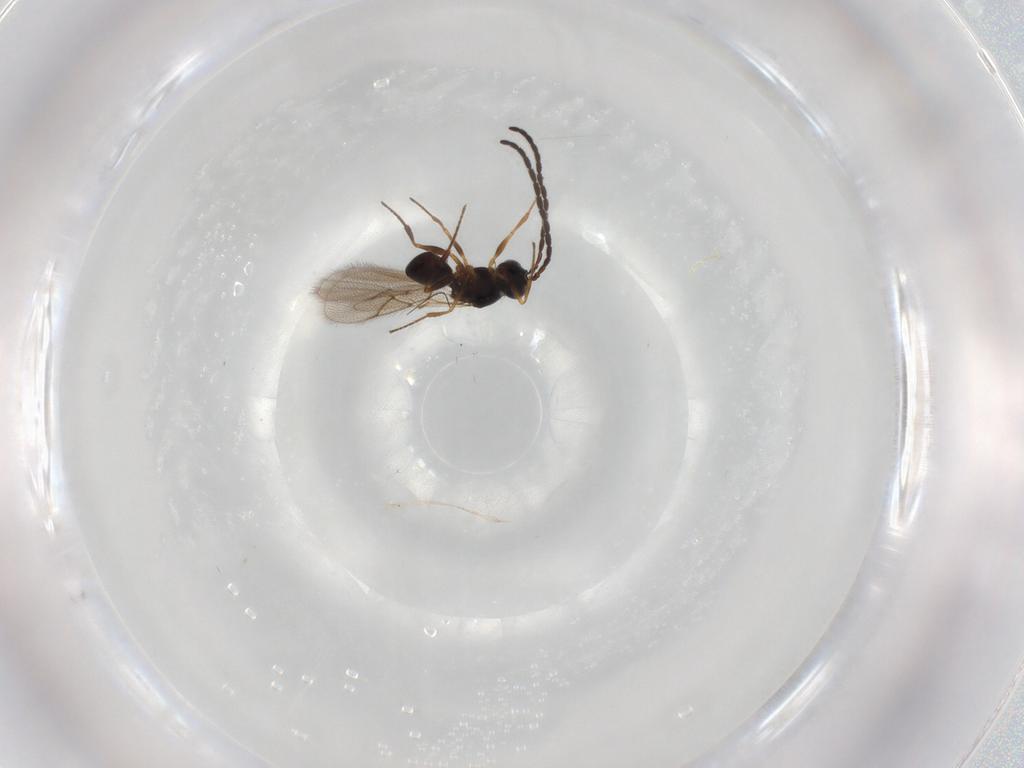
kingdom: Animalia
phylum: Arthropoda
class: Insecta
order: Hymenoptera
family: Figitidae
